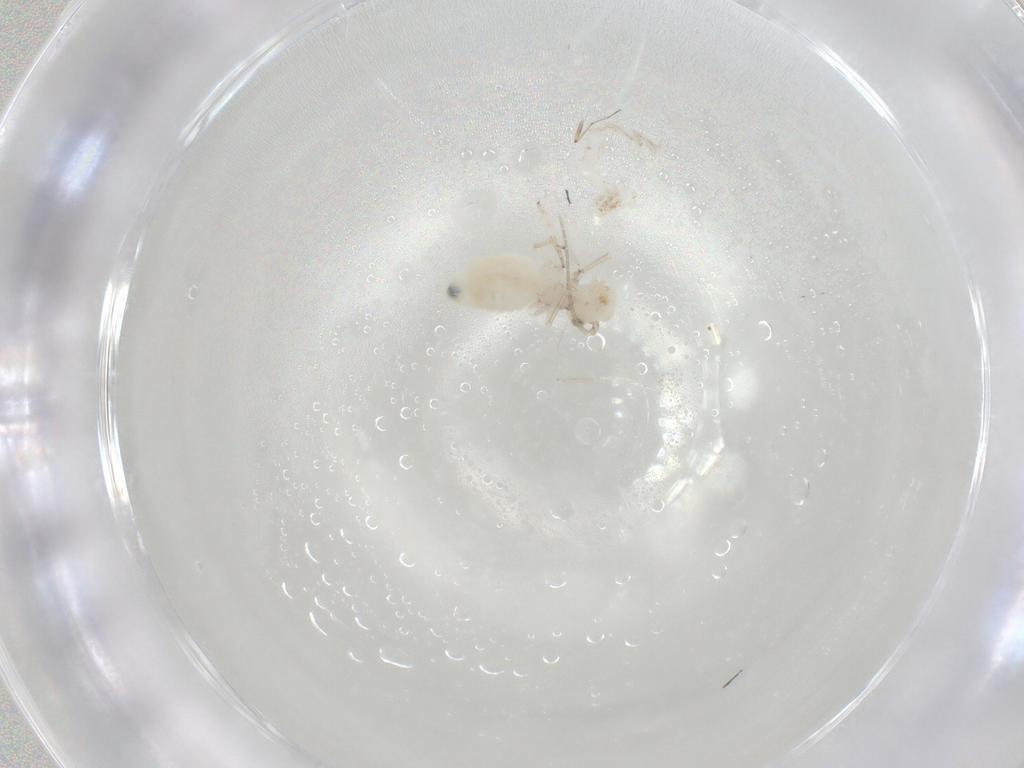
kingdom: Animalia
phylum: Arthropoda
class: Insecta
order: Psocodea
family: Caeciliusidae
